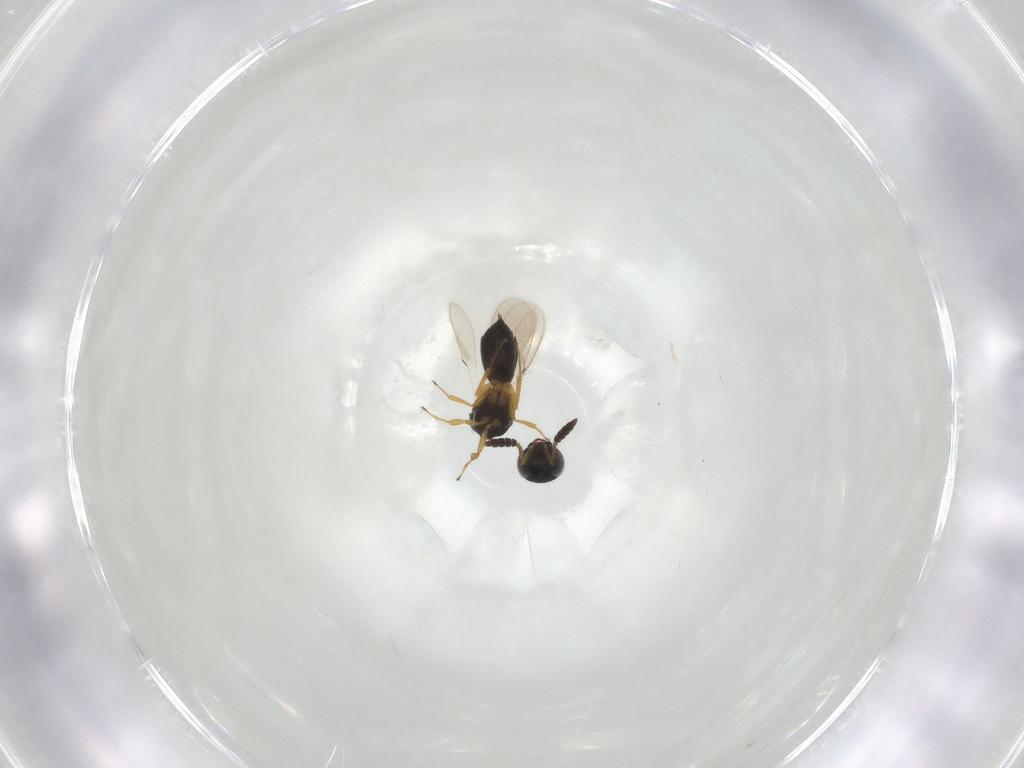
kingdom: Animalia
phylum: Arthropoda
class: Insecta
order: Hymenoptera
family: Scelionidae
